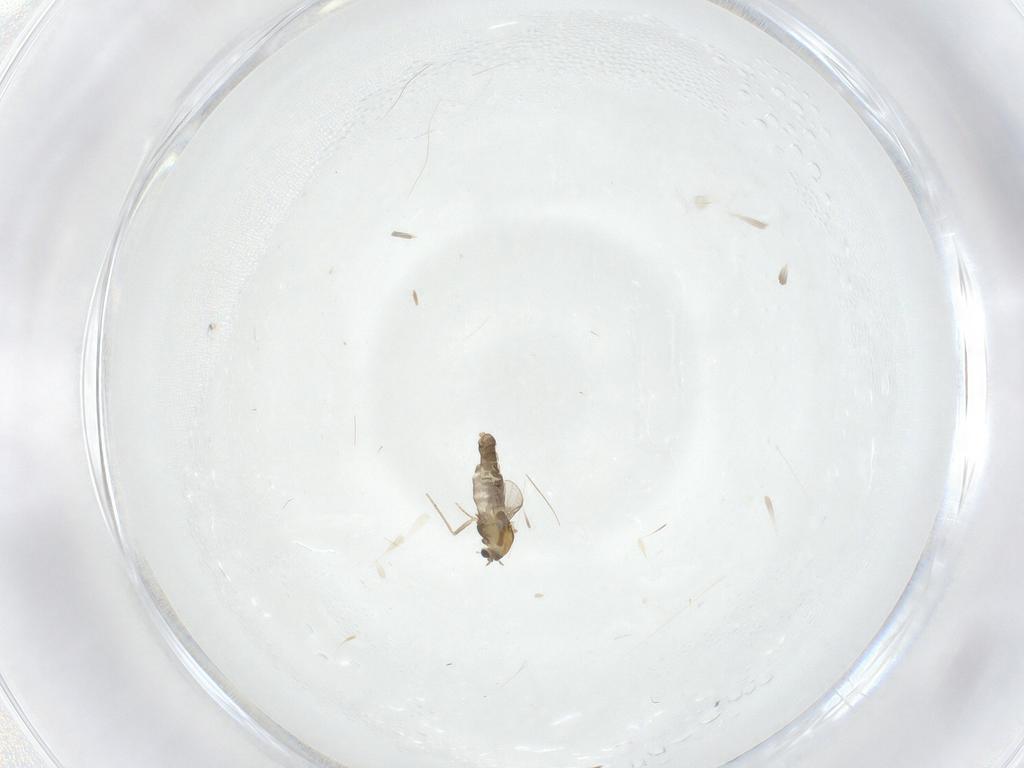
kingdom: Animalia
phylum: Arthropoda
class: Insecta
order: Diptera
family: Chironomidae
